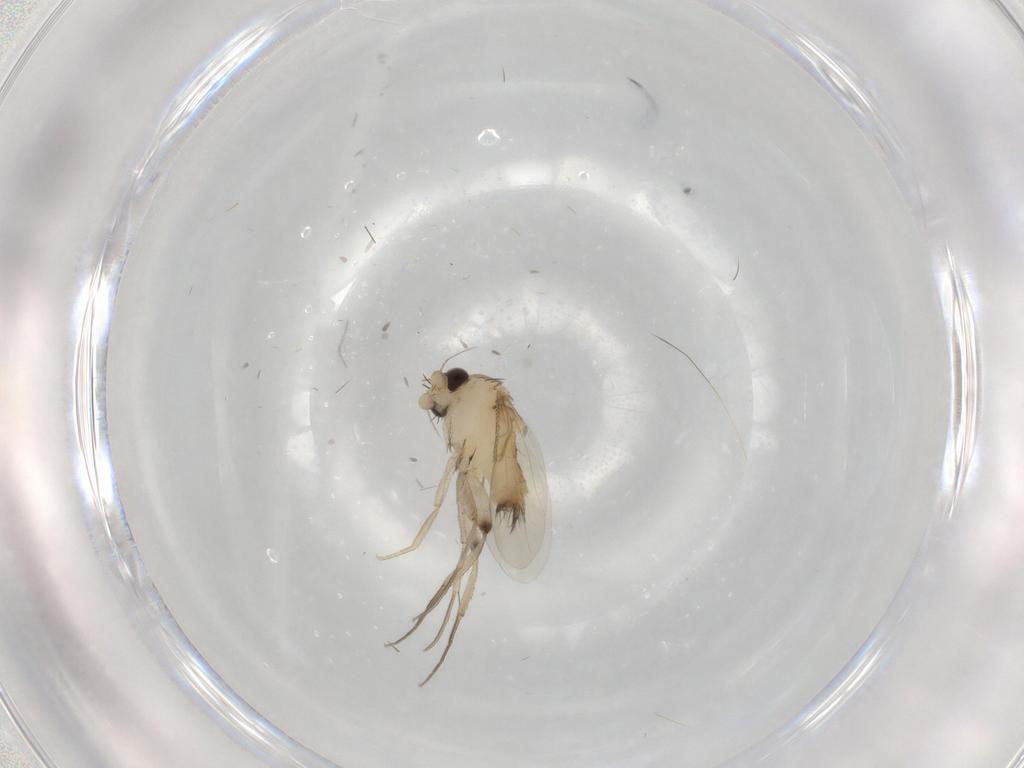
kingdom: Animalia
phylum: Arthropoda
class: Insecta
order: Diptera
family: Phoridae
